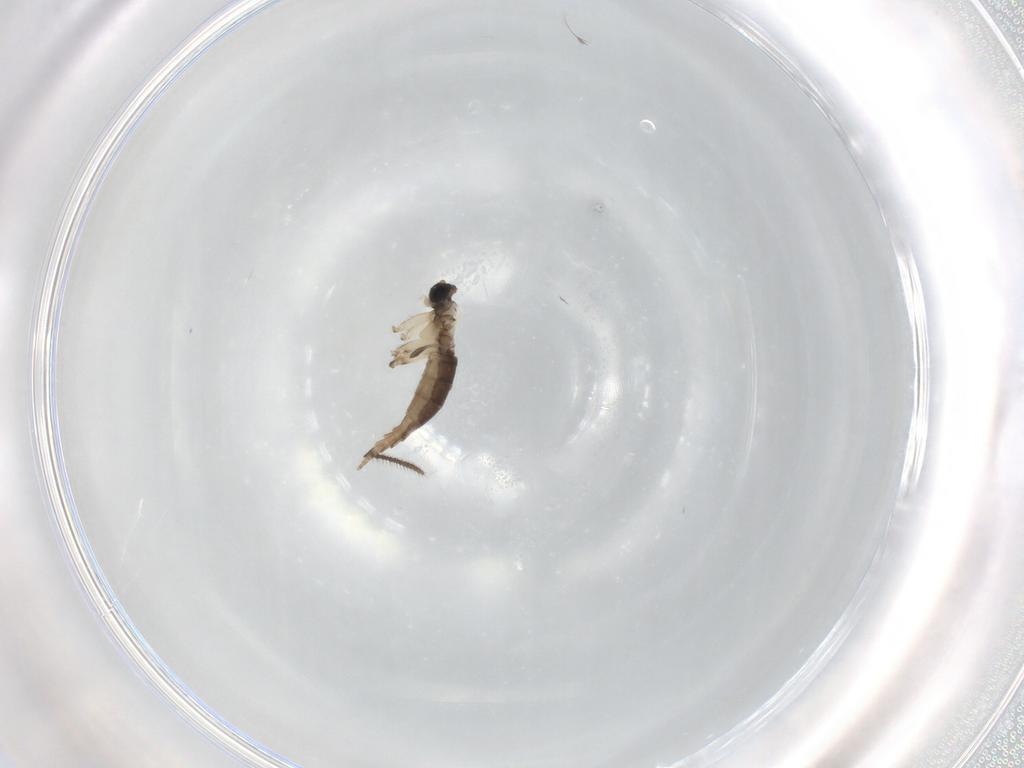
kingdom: Animalia
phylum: Arthropoda
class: Insecta
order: Diptera
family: Sciaridae
